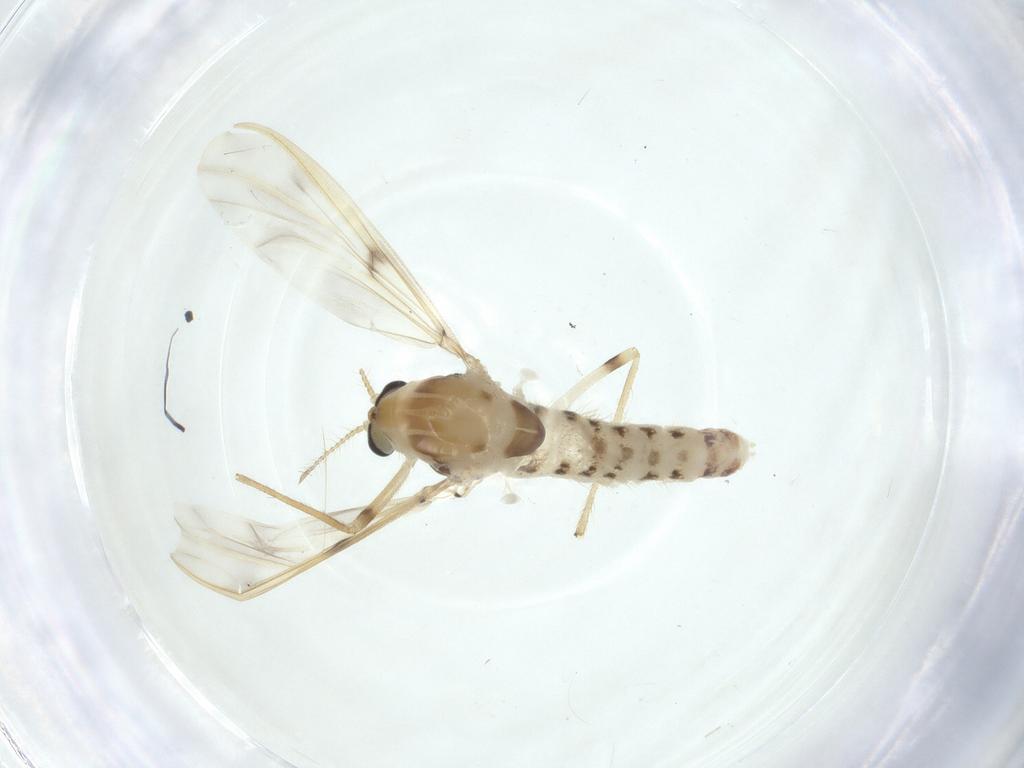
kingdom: Animalia
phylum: Arthropoda
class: Insecta
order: Diptera
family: Chironomidae
